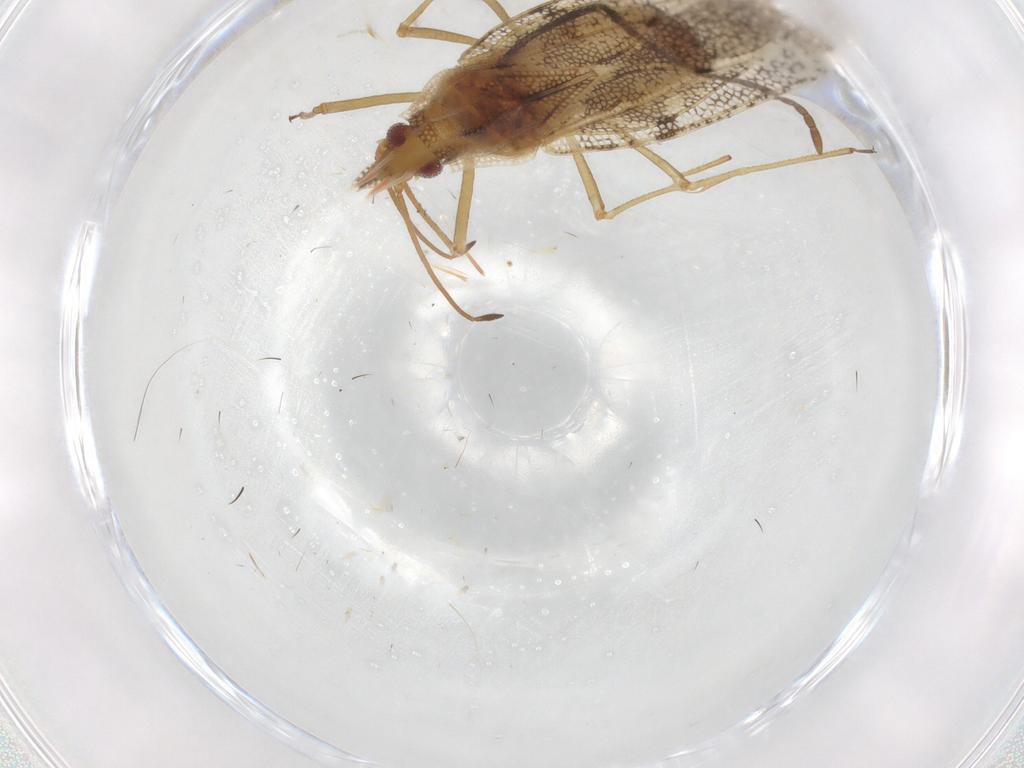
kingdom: Animalia
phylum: Arthropoda
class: Insecta
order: Hemiptera
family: Tingidae
